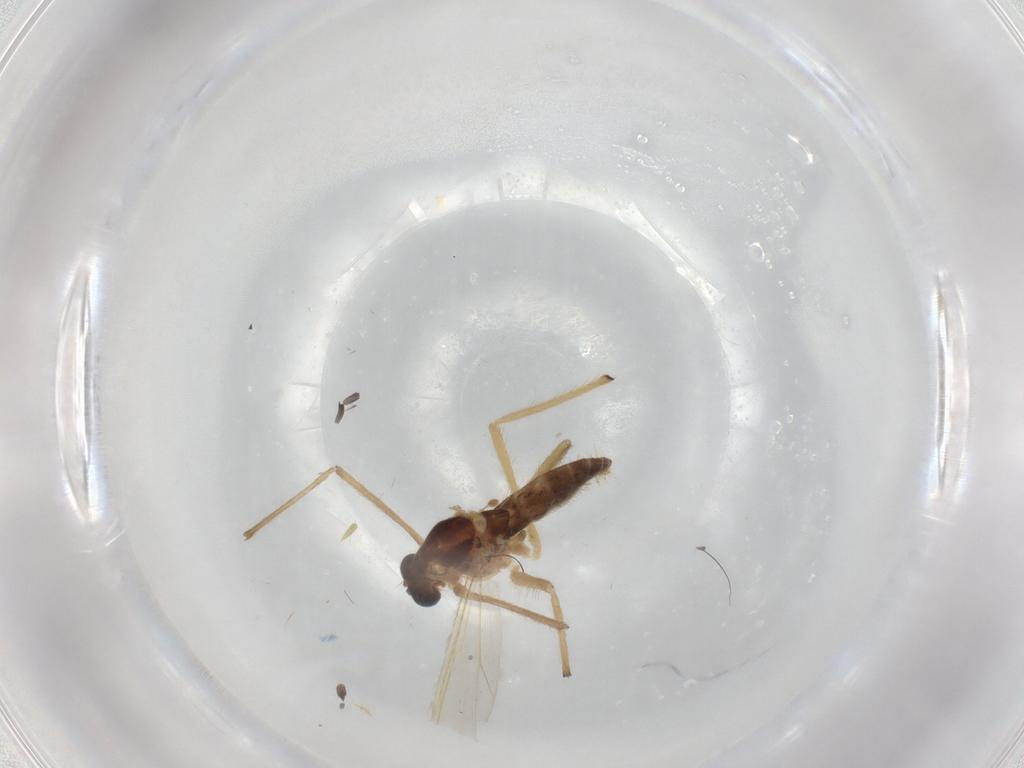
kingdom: Animalia
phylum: Arthropoda
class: Insecta
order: Diptera
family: Chironomidae
